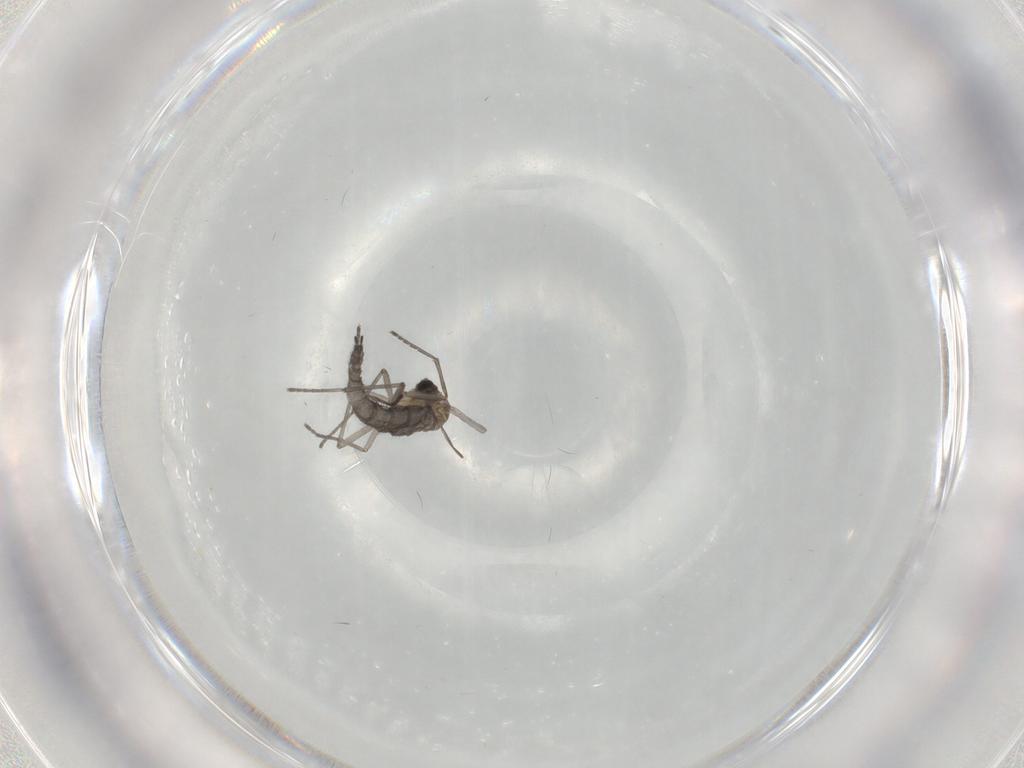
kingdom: Animalia
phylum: Arthropoda
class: Insecta
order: Diptera
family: Sciaridae
